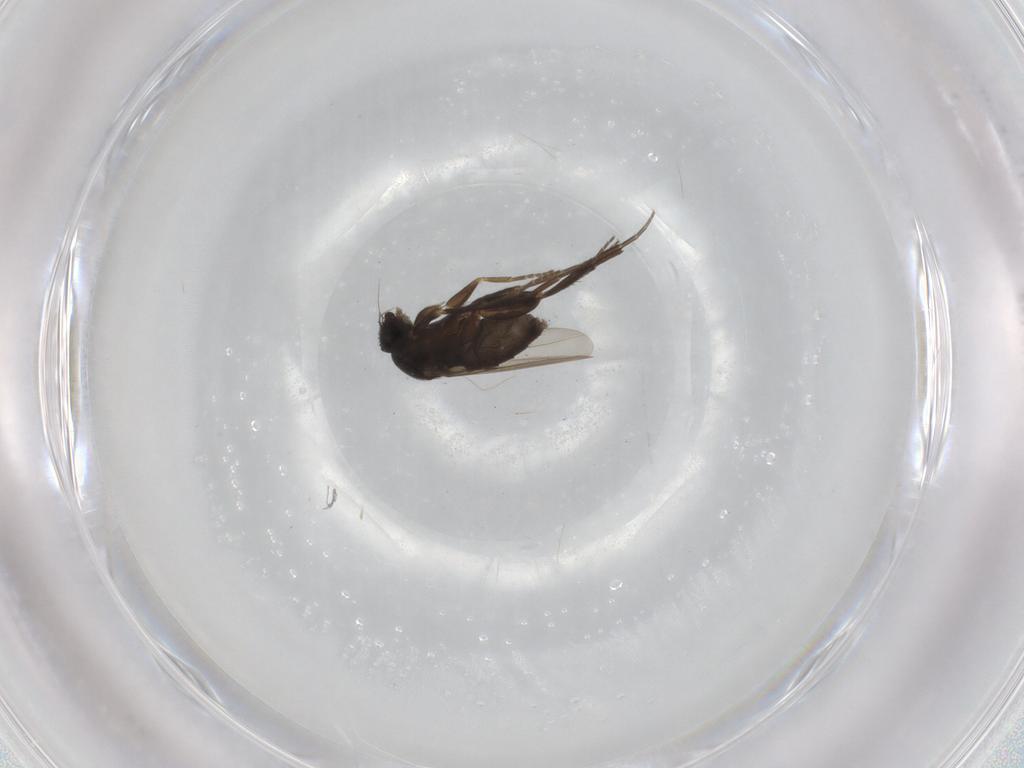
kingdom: Animalia
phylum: Arthropoda
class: Insecta
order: Diptera
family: Phoridae
